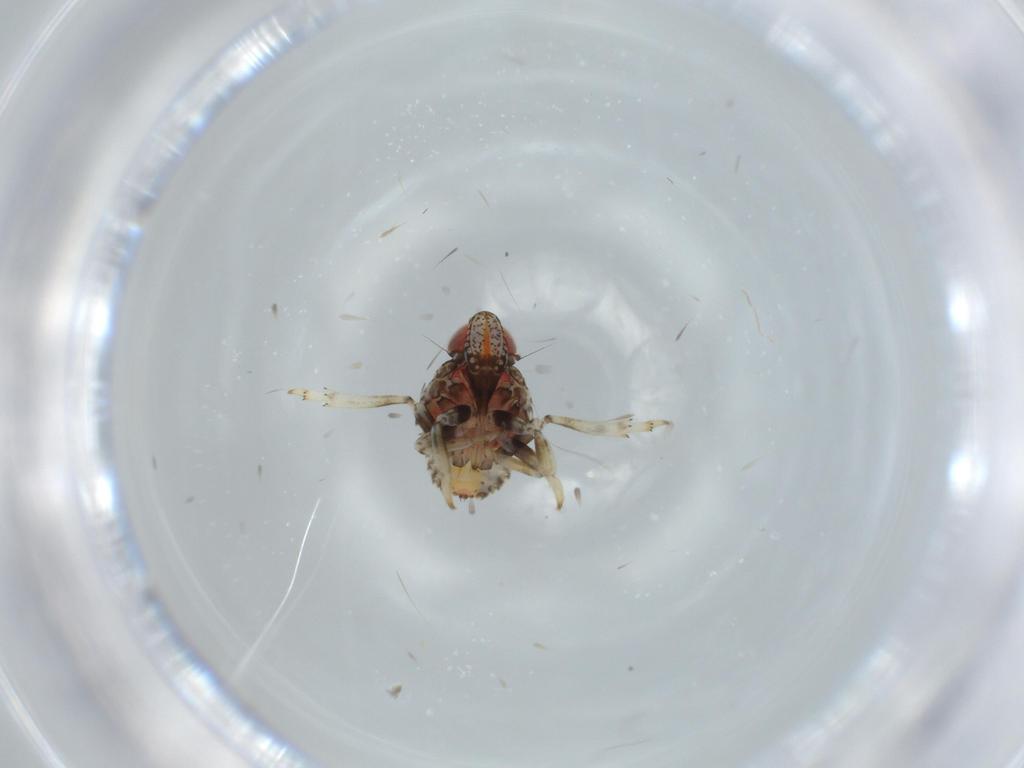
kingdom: Animalia
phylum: Arthropoda
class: Insecta
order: Hemiptera
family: Issidae
